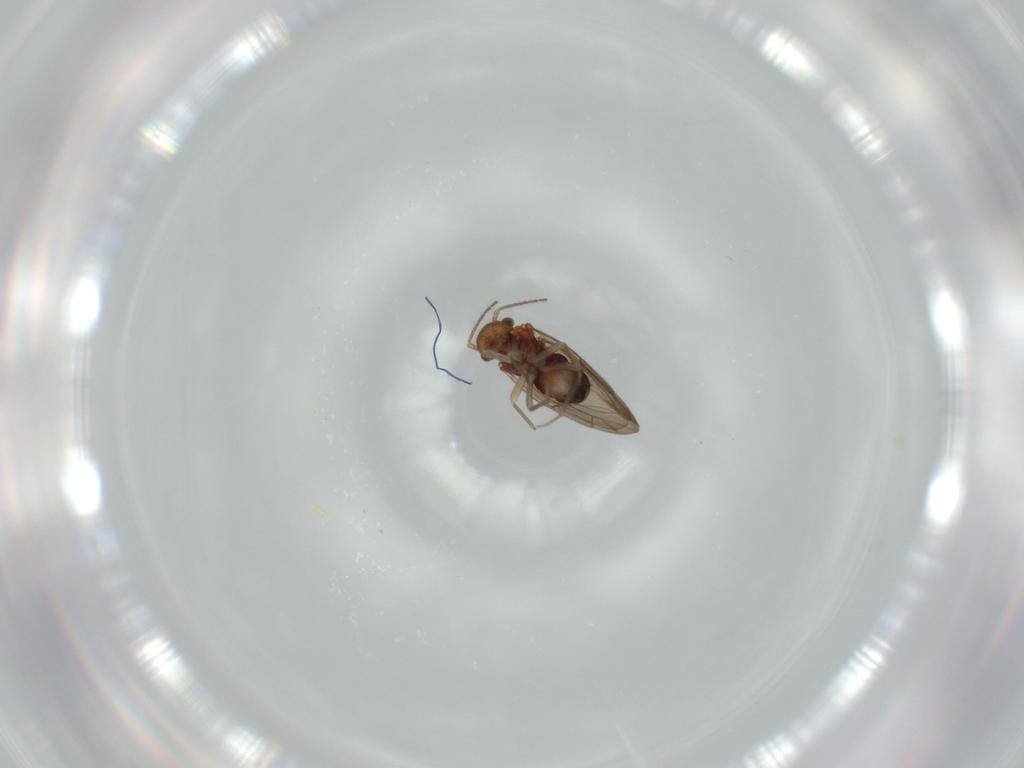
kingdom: Animalia
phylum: Arthropoda
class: Insecta
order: Psocodea
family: Ectopsocidae
